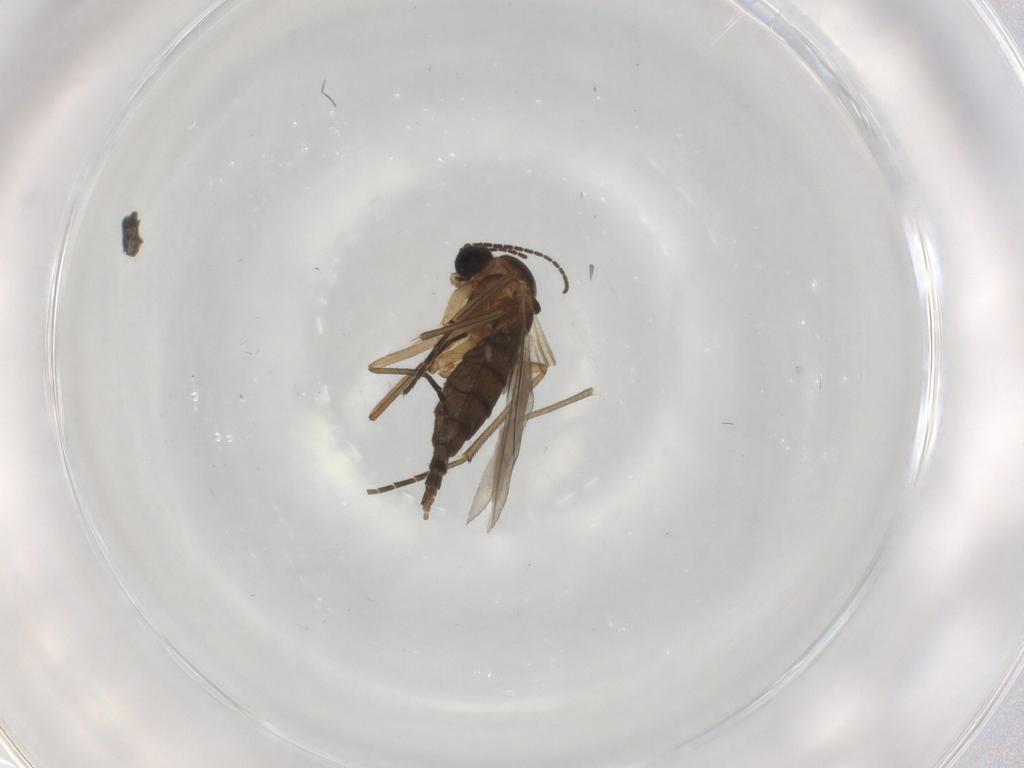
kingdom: Animalia
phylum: Arthropoda
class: Insecta
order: Diptera
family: Sciaridae
